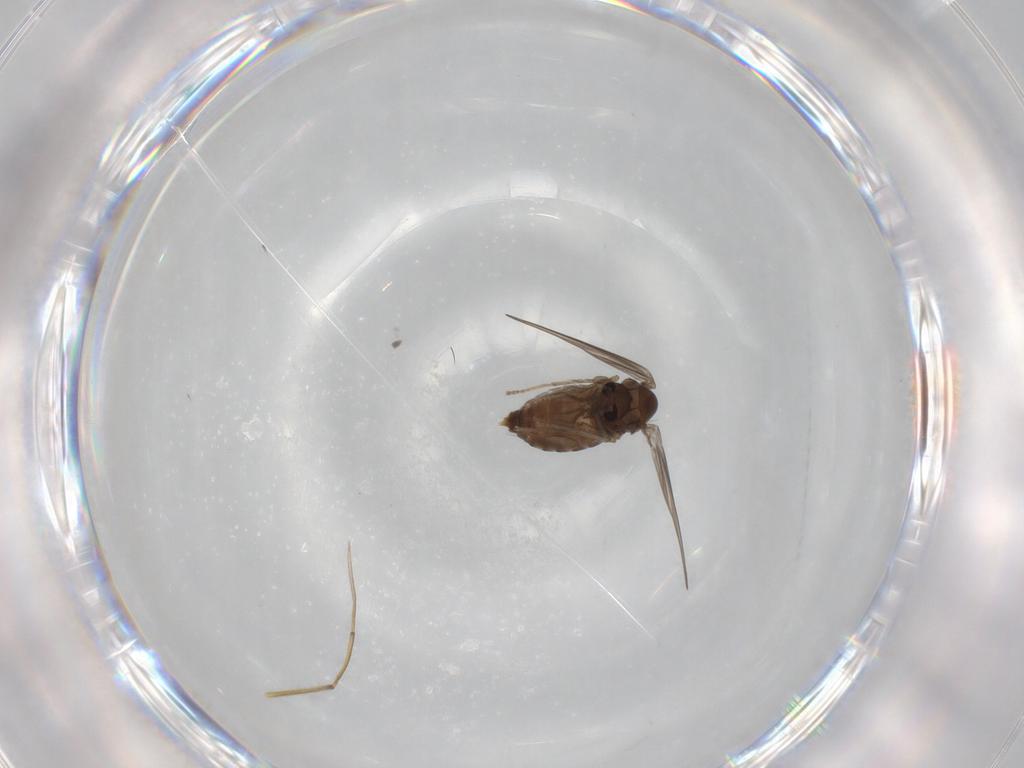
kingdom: Animalia
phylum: Arthropoda
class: Insecta
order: Diptera
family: Psychodidae
